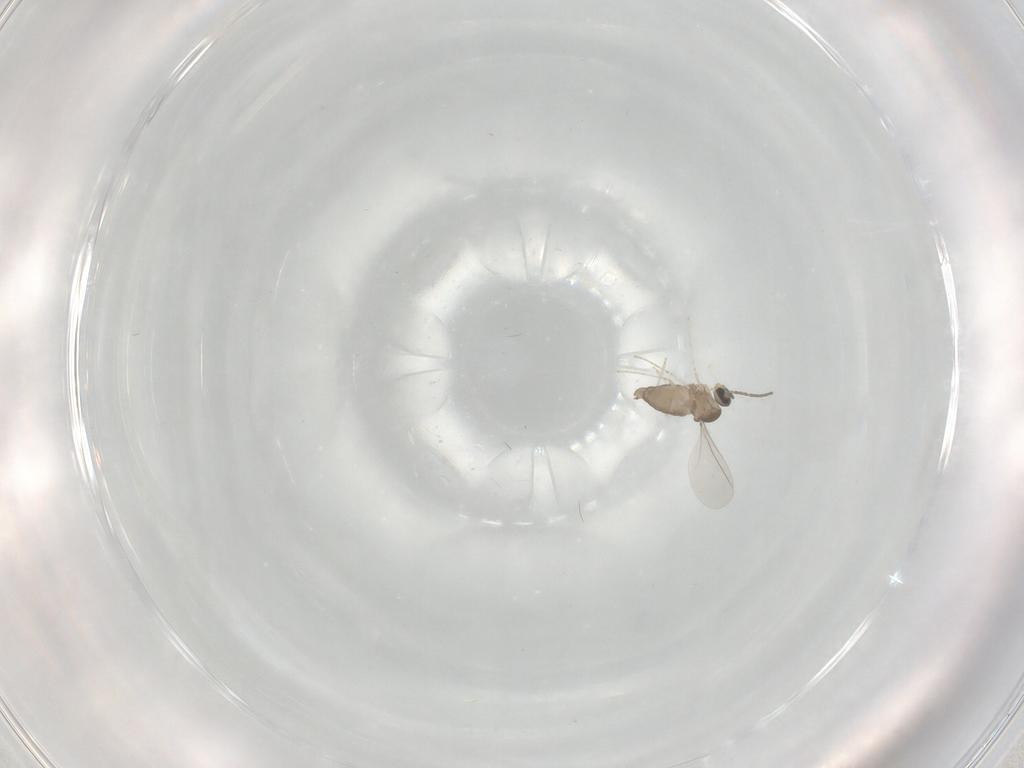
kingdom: Animalia
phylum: Arthropoda
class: Insecta
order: Diptera
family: Cecidomyiidae
